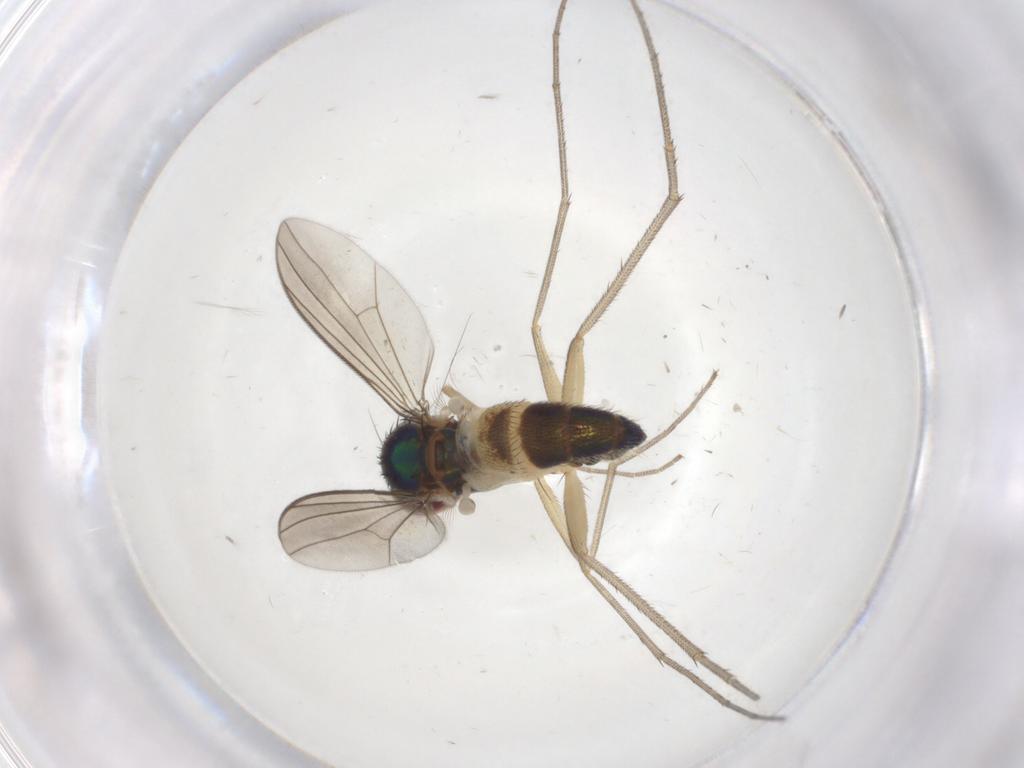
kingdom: Animalia
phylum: Arthropoda
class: Insecta
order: Diptera
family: Dolichopodidae
